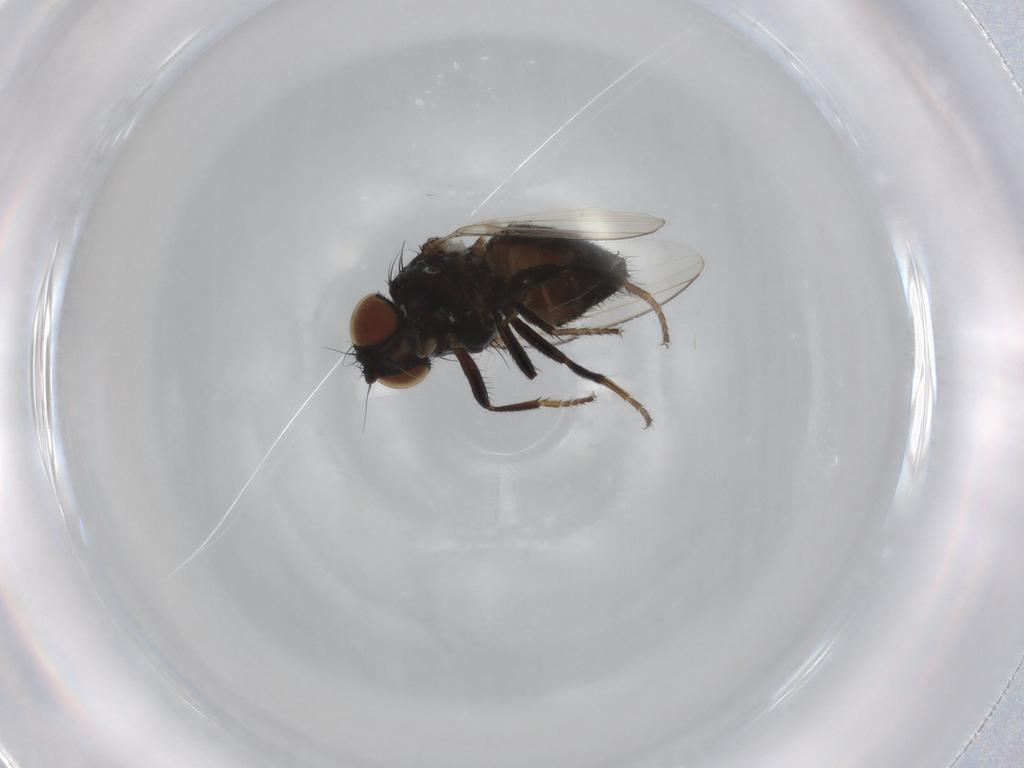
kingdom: Animalia
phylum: Arthropoda
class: Insecta
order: Diptera
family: Milichiidae
